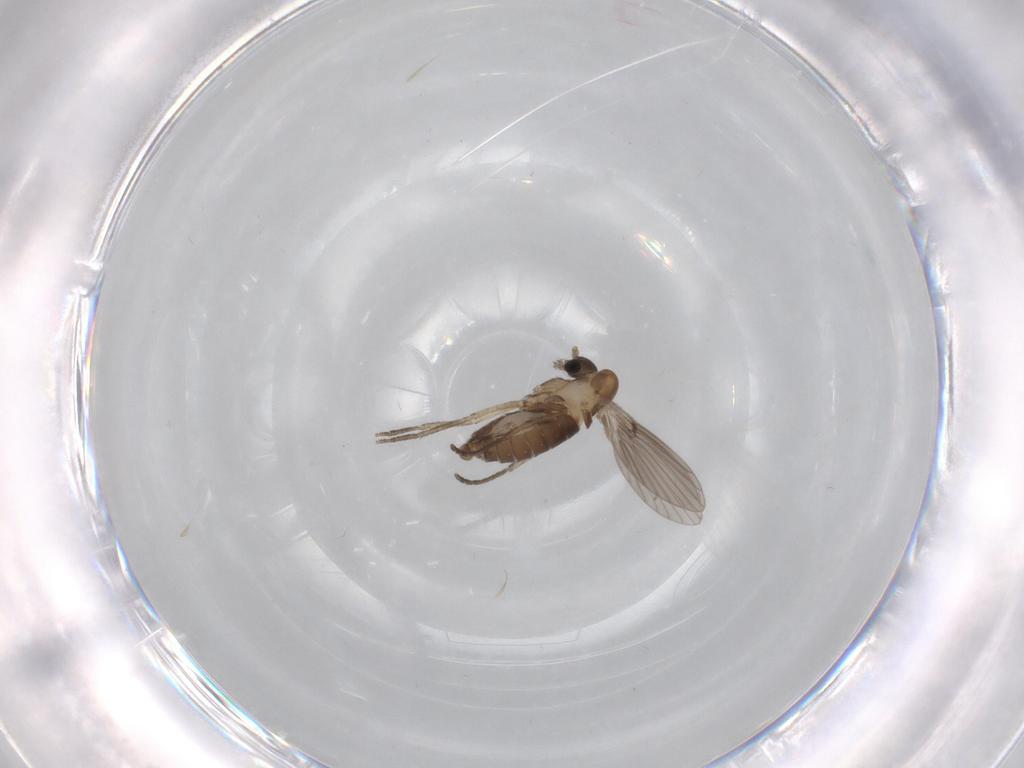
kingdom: Animalia
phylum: Arthropoda
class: Insecta
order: Diptera
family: Psychodidae
